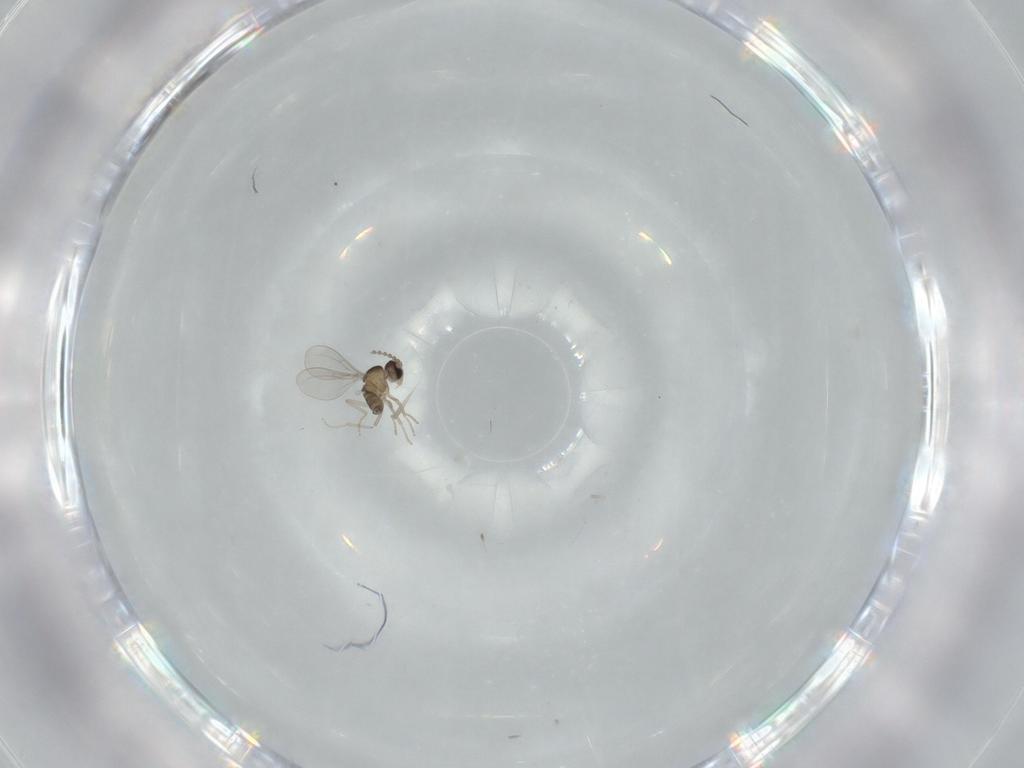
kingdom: Animalia
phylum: Arthropoda
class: Insecta
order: Diptera
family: Cecidomyiidae
